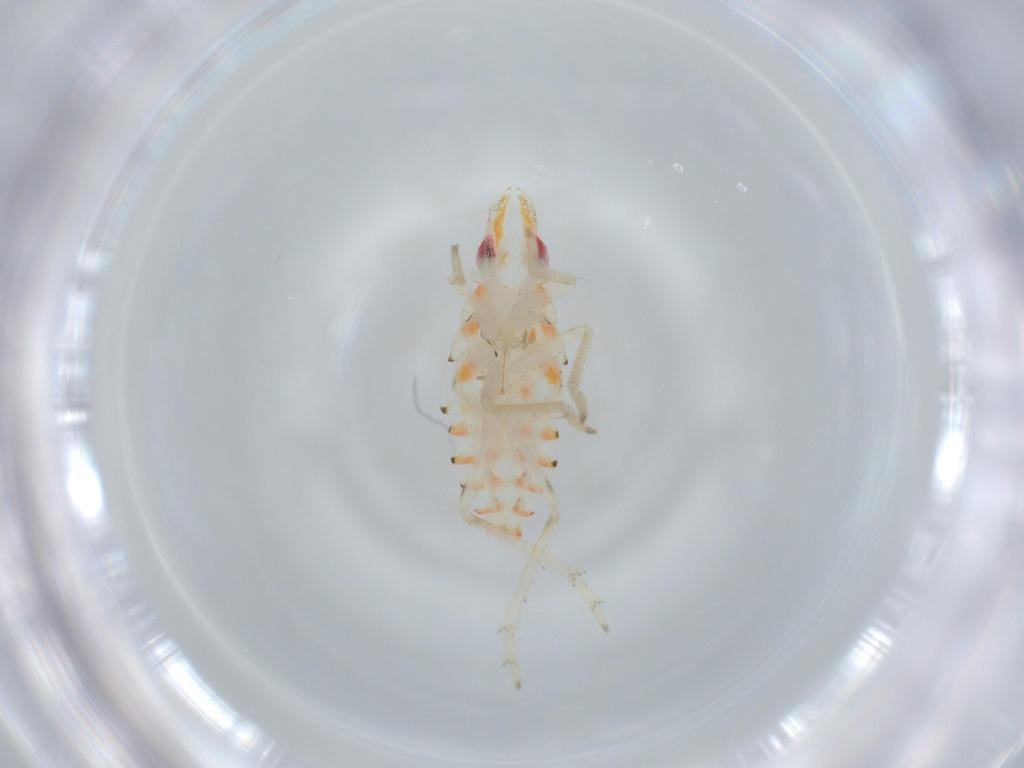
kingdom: Animalia
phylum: Arthropoda
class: Insecta
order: Hemiptera
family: Tropiduchidae
